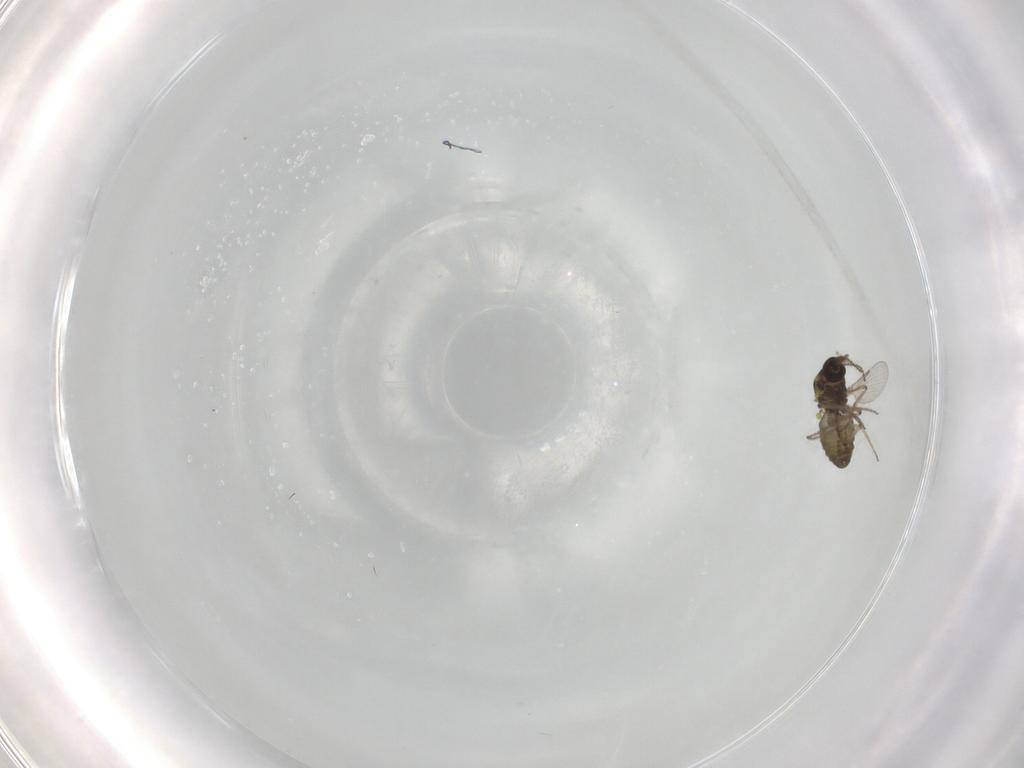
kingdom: Animalia
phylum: Arthropoda
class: Insecta
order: Diptera
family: Ceratopogonidae
